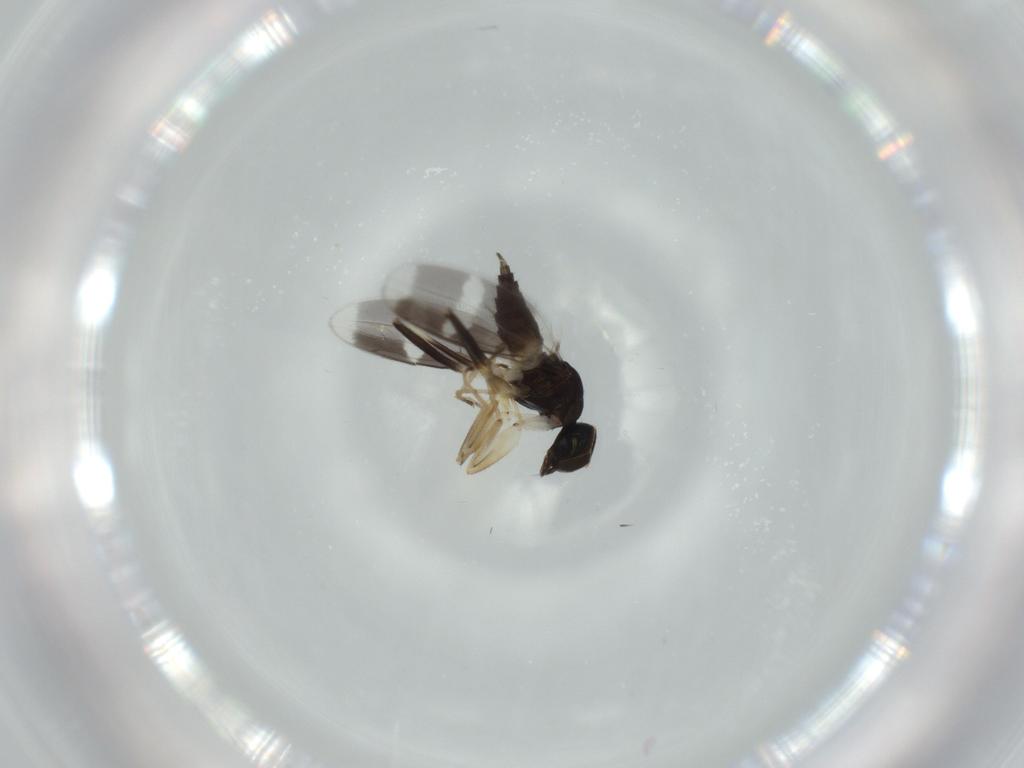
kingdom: Animalia
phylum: Arthropoda
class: Insecta
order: Diptera
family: Hybotidae
